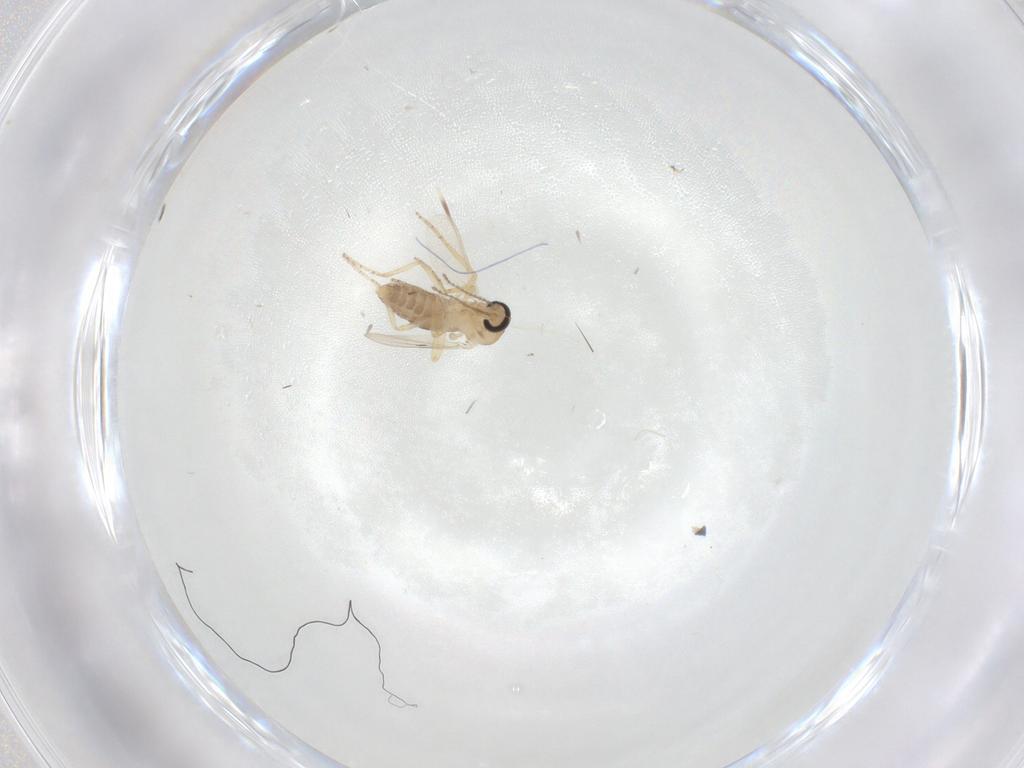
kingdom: Animalia
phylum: Arthropoda
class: Insecta
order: Diptera
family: Ceratopogonidae
